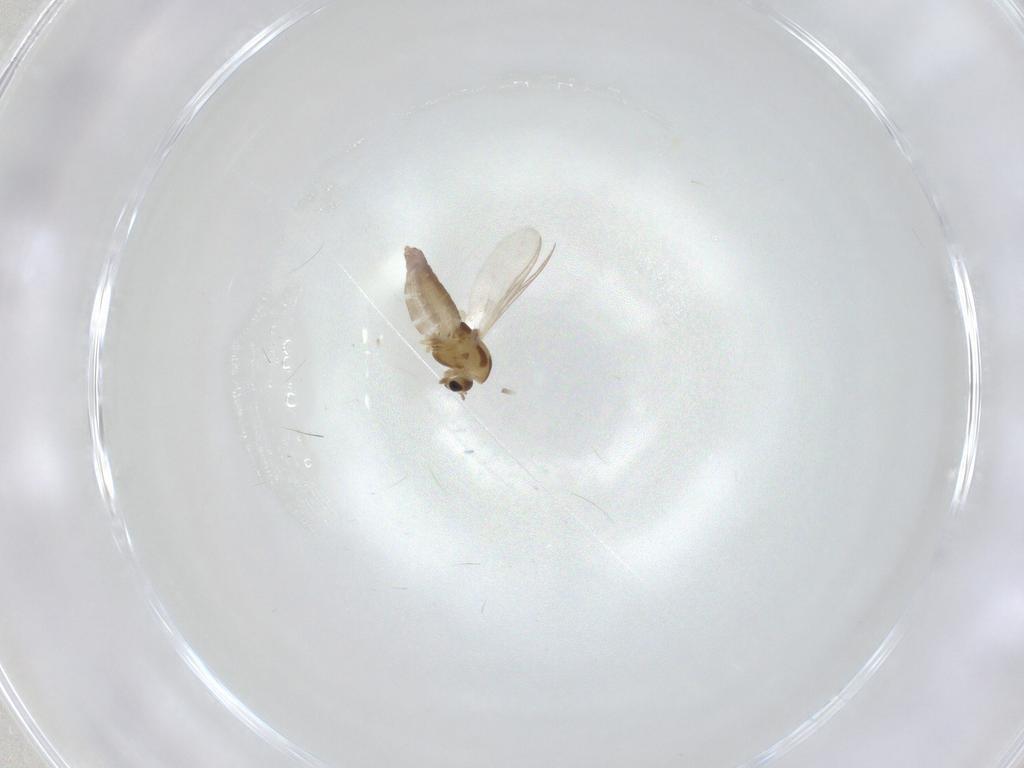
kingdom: Animalia
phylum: Arthropoda
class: Insecta
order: Diptera
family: Chironomidae
